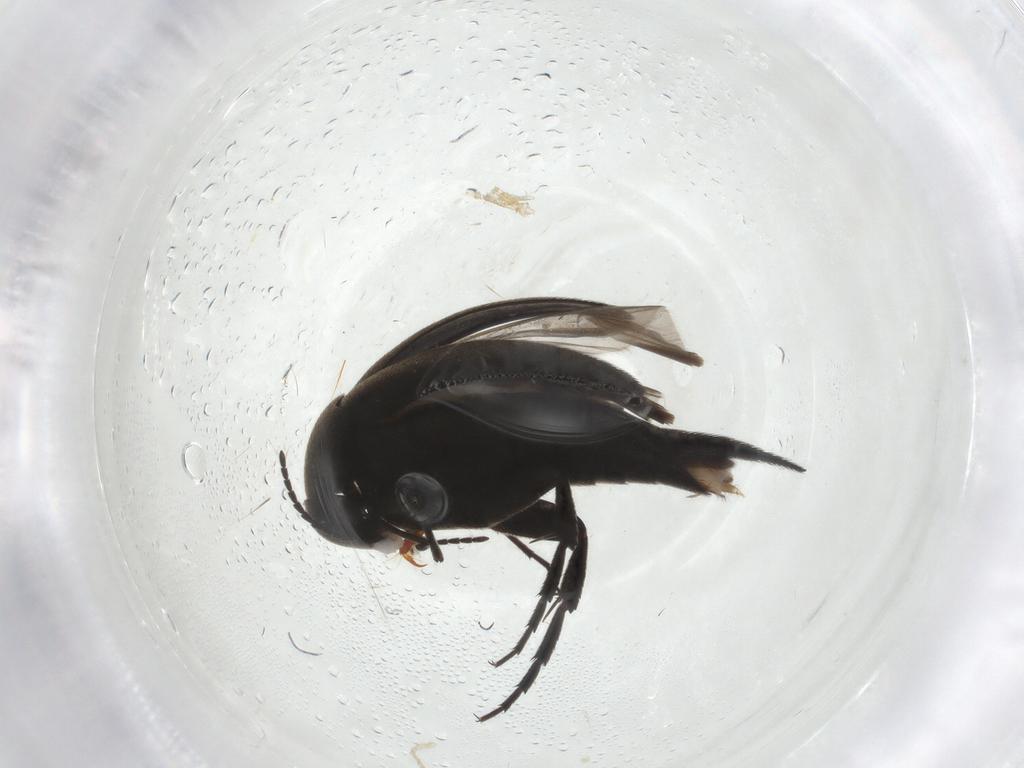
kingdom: Animalia
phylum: Arthropoda
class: Insecta
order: Coleoptera
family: Mordellidae
